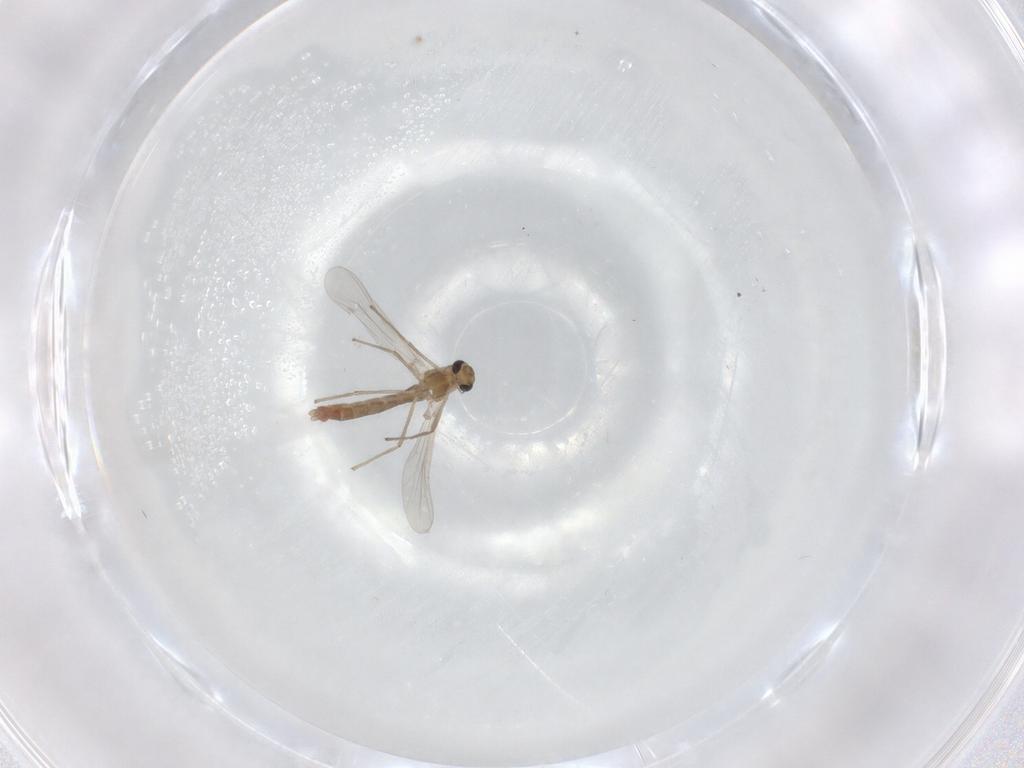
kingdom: Animalia
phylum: Arthropoda
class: Insecta
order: Diptera
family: Chironomidae
